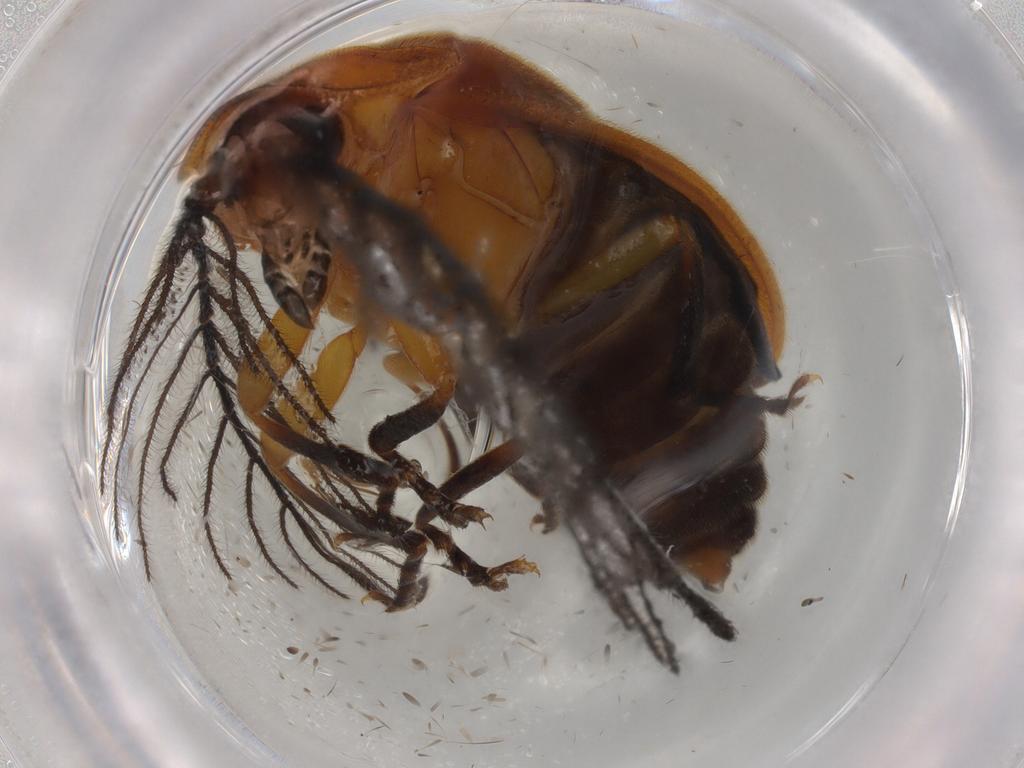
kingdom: Animalia
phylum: Arthropoda
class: Insecta
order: Coleoptera
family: Chrysomelidae
